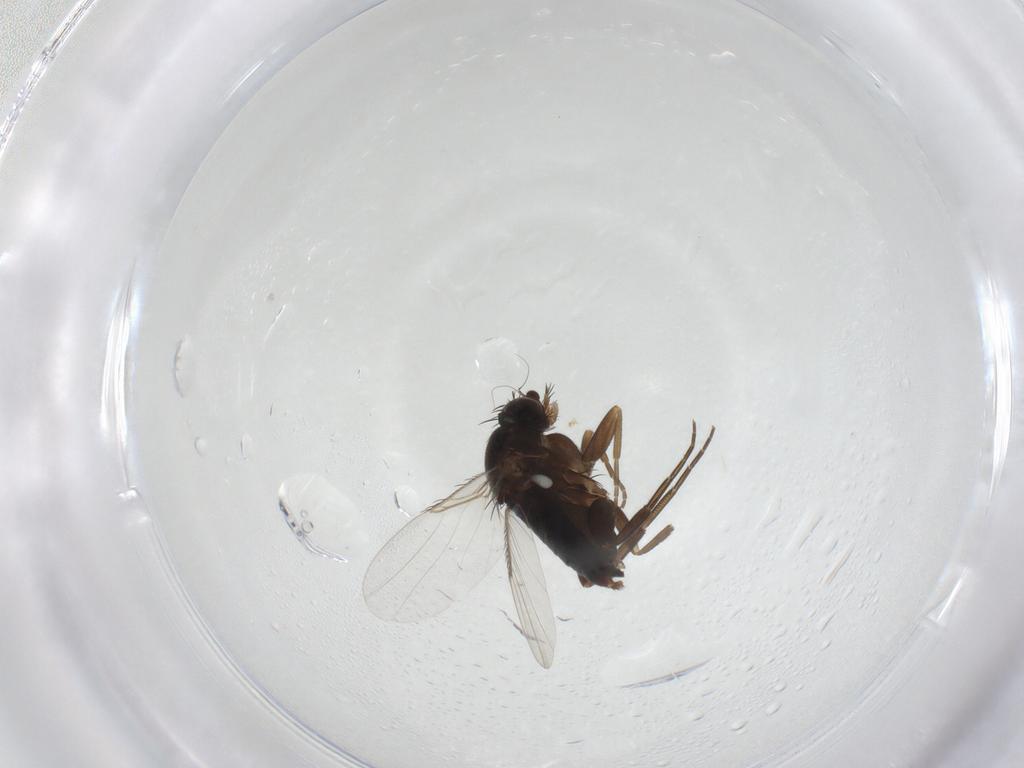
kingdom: Animalia
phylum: Arthropoda
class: Insecta
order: Diptera
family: Phoridae
